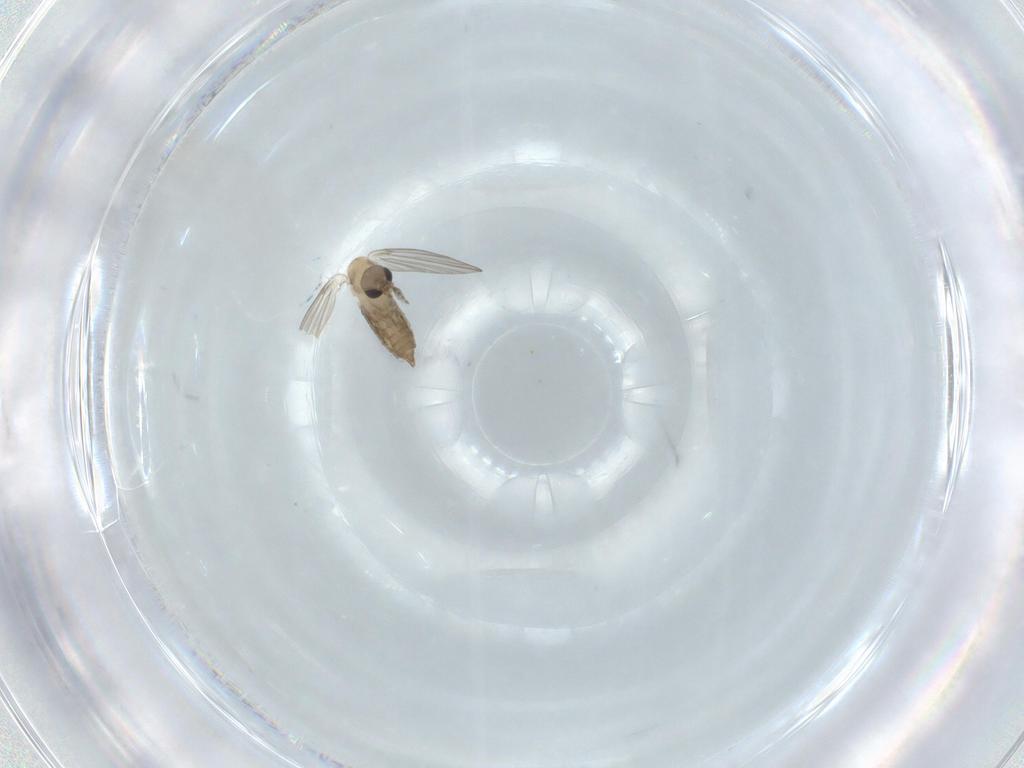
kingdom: Animalia
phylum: Arthropoda
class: Insecta
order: Diptera
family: Psychodidae
